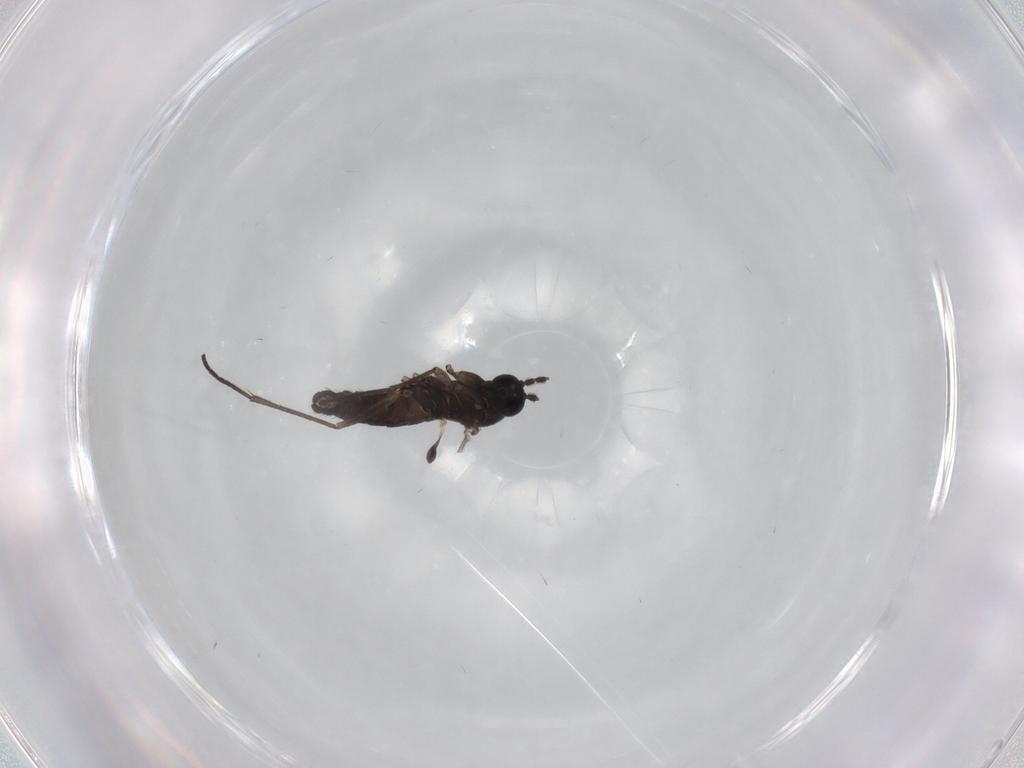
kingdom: Animalia
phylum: Arthropoda
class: Insecta
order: Diptera
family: Sciaridae
